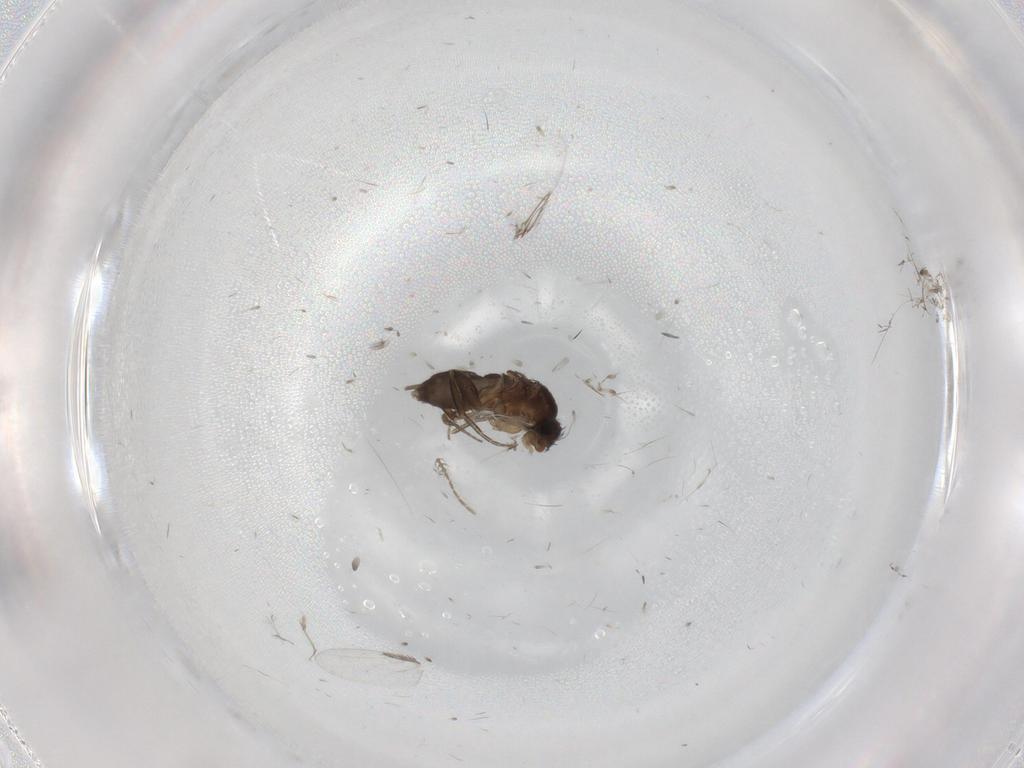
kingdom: Animalia
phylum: Arthropoda
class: Insecta
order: Diptera
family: Phoridae
